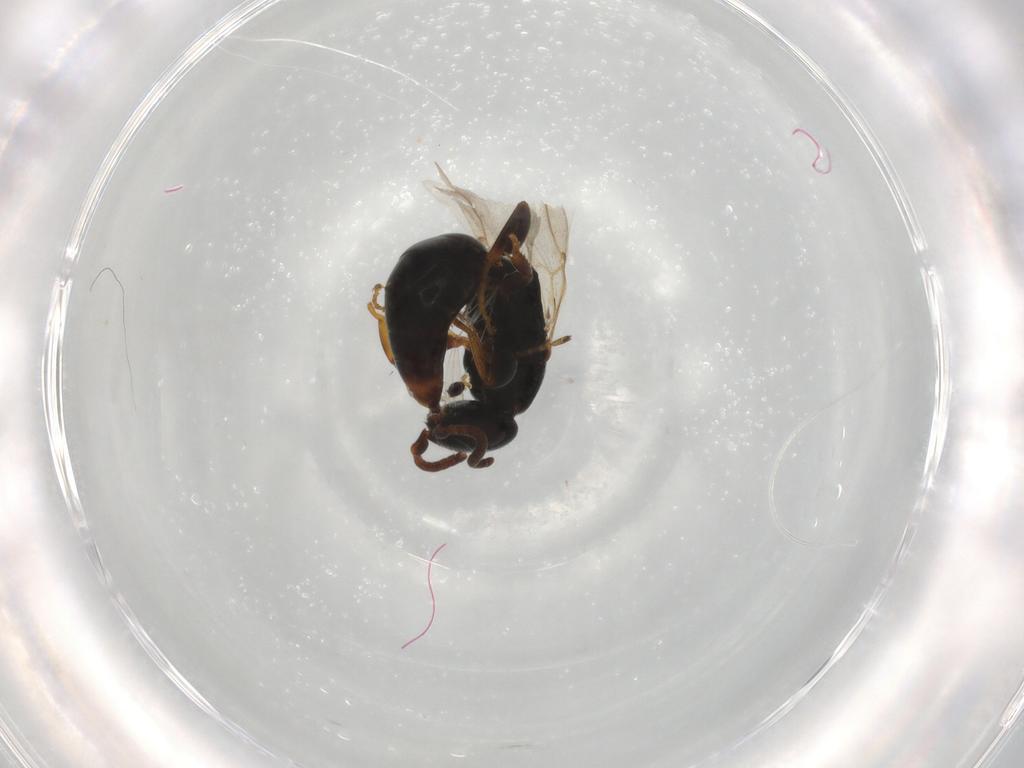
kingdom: Animalia
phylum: Arthropoda
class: Insecta
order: Hymenoptera
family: Bethylidae
